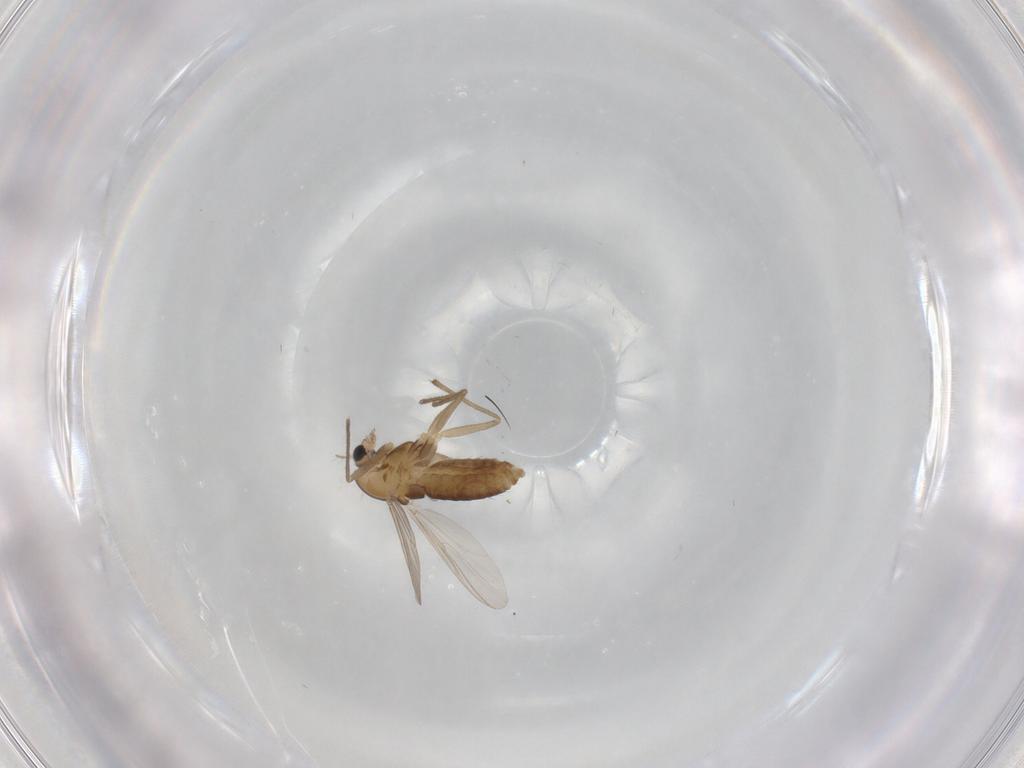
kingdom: Animalia
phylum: Arthropoda
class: Insecta
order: Diptera
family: Chironomidae
